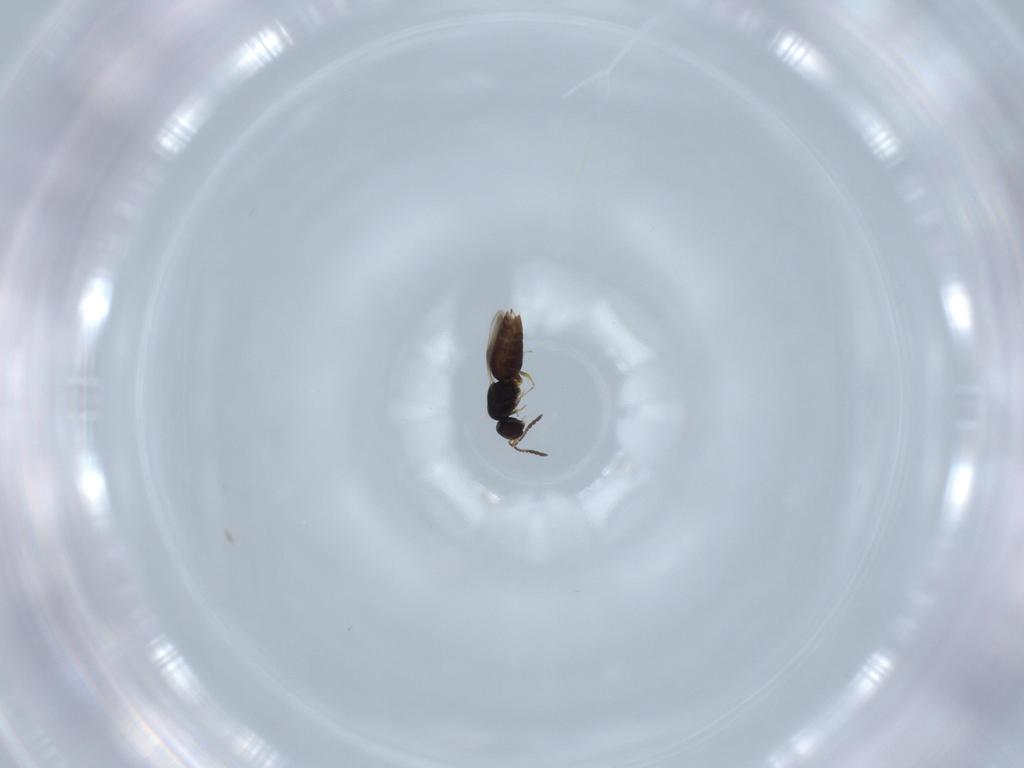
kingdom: Animalia
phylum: Arthropoda
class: Insecta
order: Hymenoptera
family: Ceraphronidae
